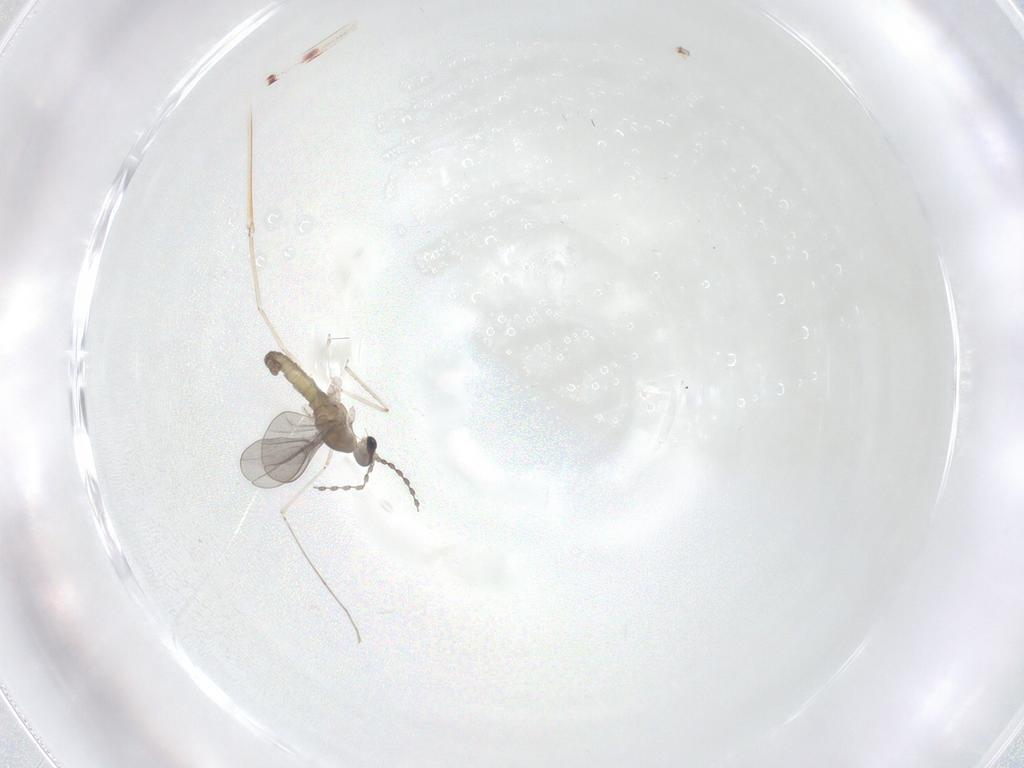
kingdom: Animalia
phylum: Arthropoda
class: Insecta
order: Diptera
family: Cecidomyiidae
